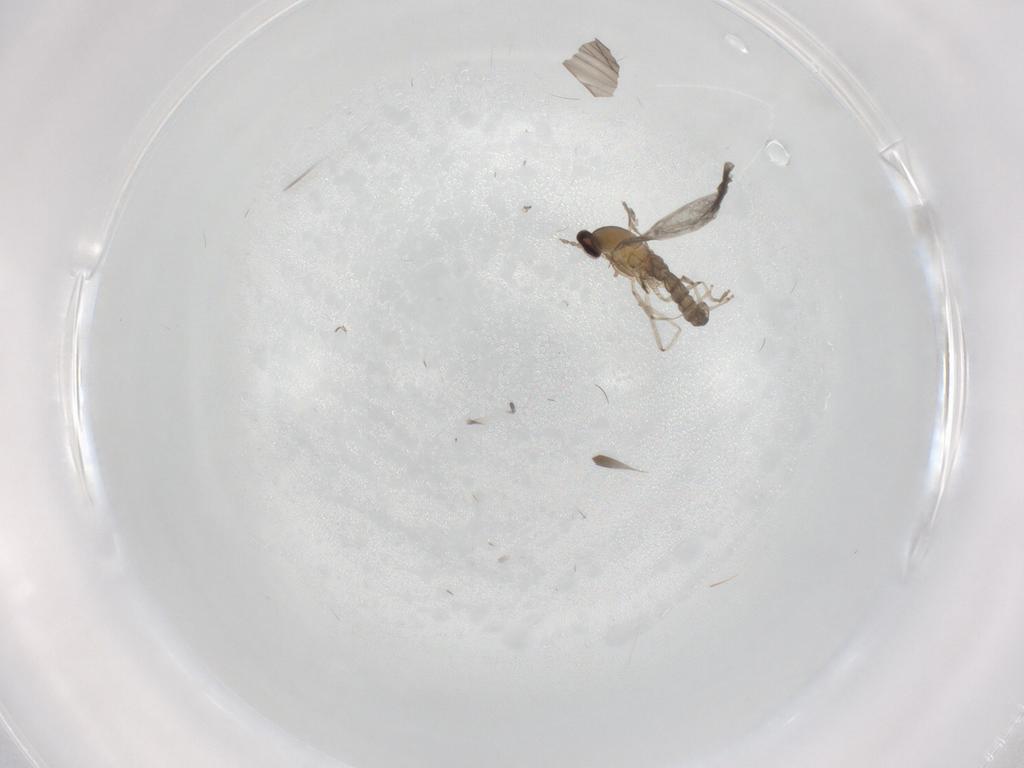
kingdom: Animalia
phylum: Arthropoda
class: Insecta
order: Diptera
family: Cecidomyiidae
